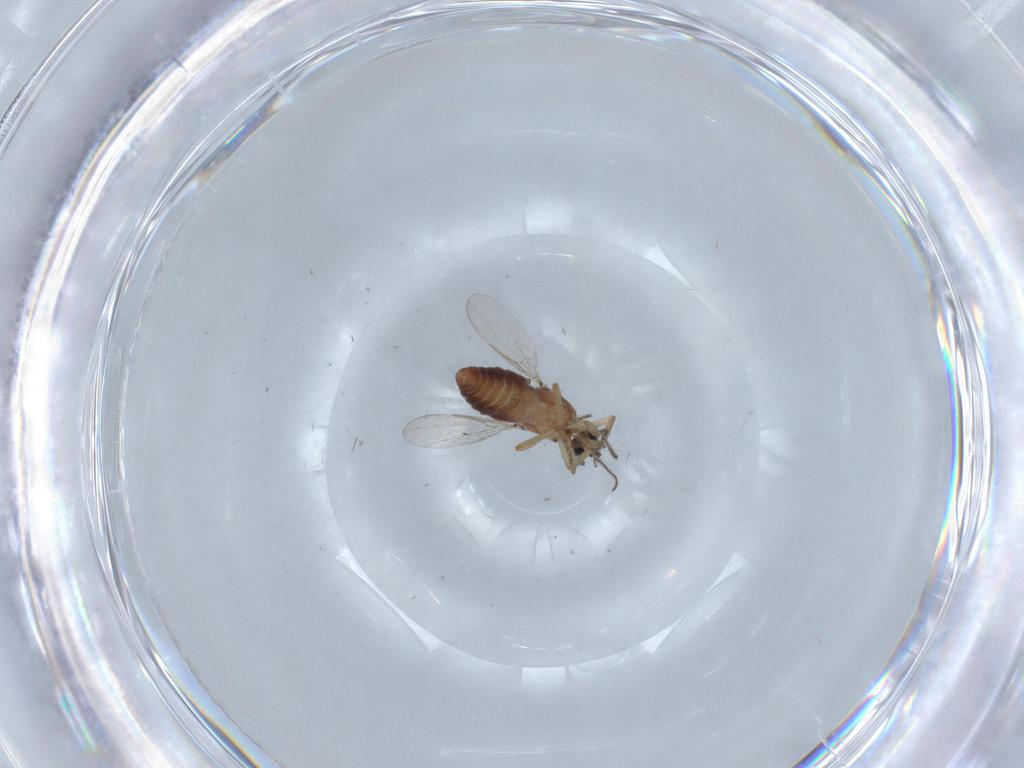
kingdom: Animalia
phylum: Arthropoda
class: Insecta
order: Diptera
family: Ceratopogonidae
